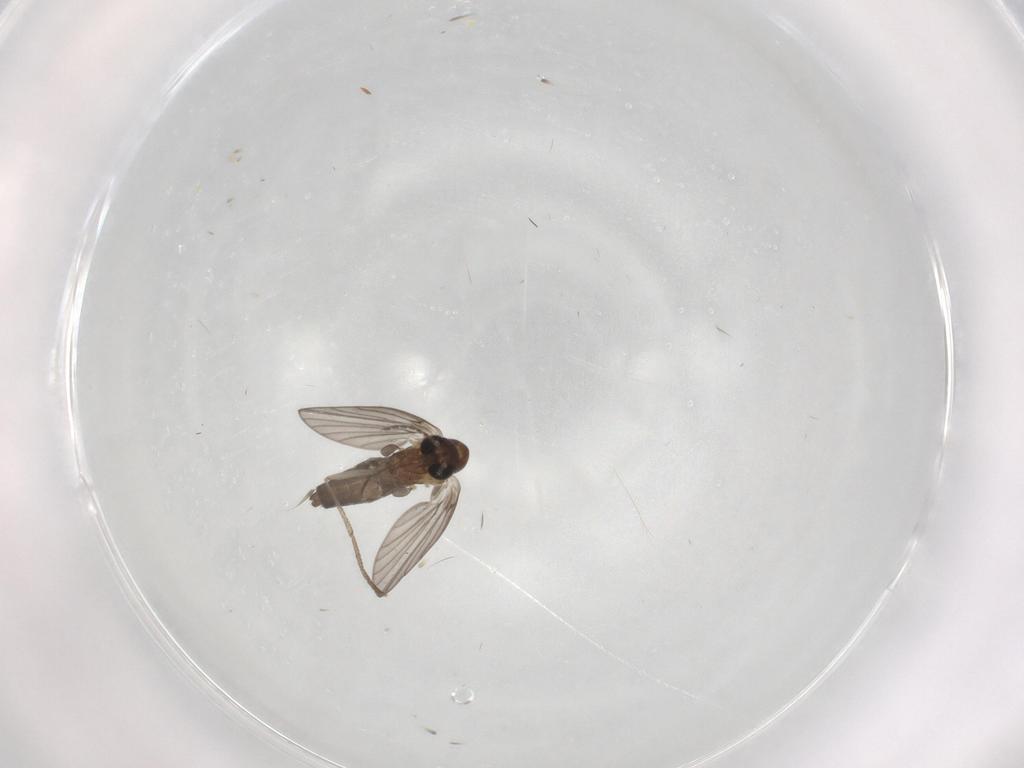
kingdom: Animalia
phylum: Arthropoda
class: Insecta
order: Diptera
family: Psychodidae
